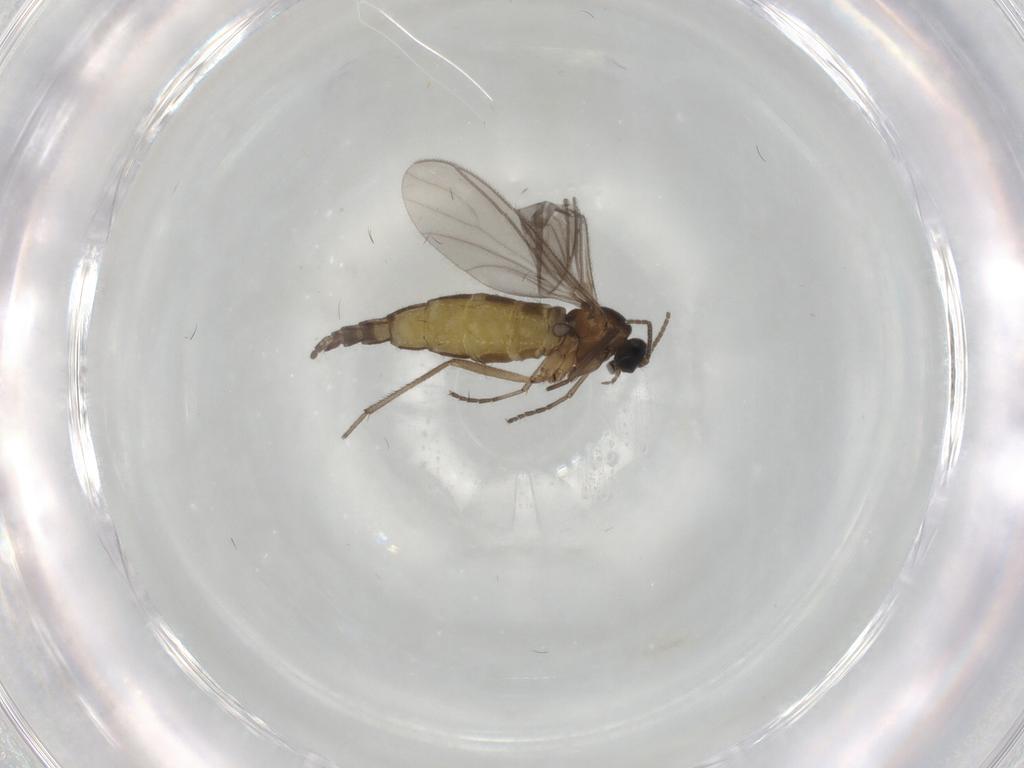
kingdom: Animalia
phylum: Arthropoda
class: Insecta
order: Diptera
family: Sciaridae
